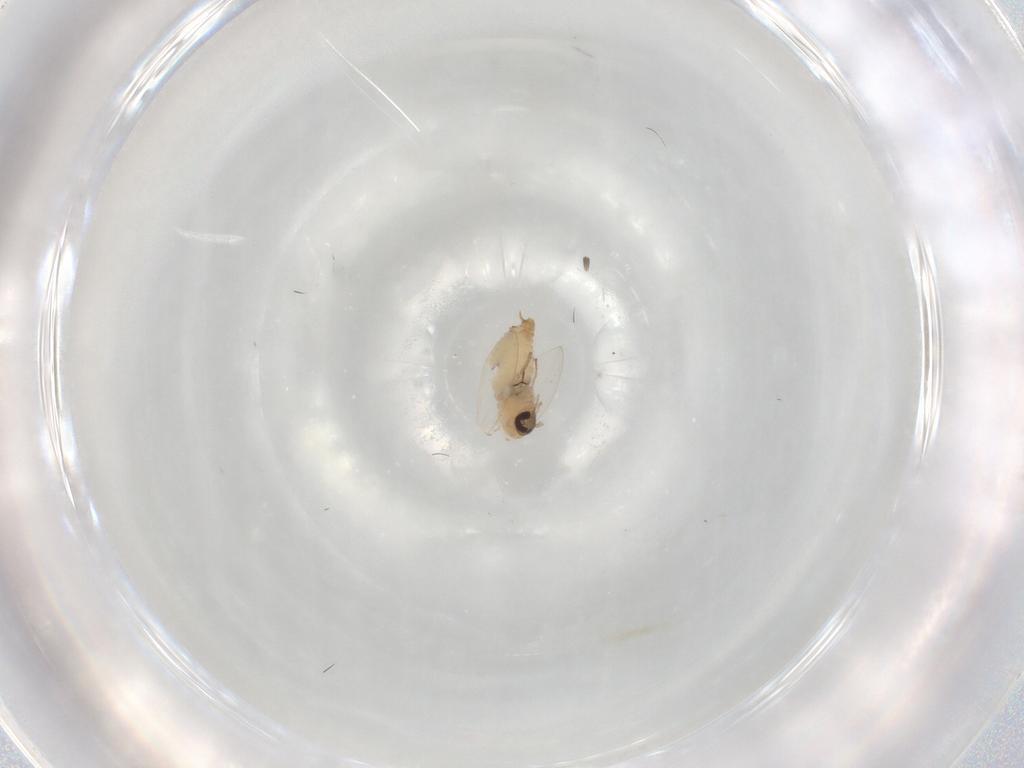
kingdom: Animalia
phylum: Arthropoda
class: Insecta
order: Diptera
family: Psychodidae
